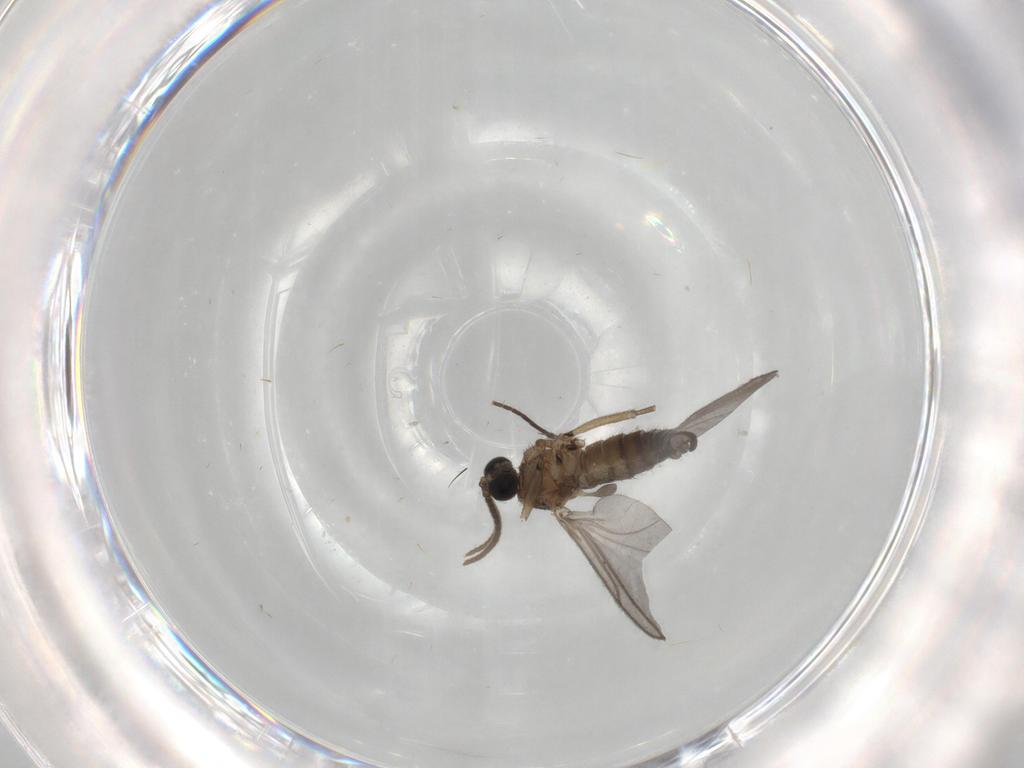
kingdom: Animalia
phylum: Arthropoda
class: Insecta
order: Diptera
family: Sciaridae
